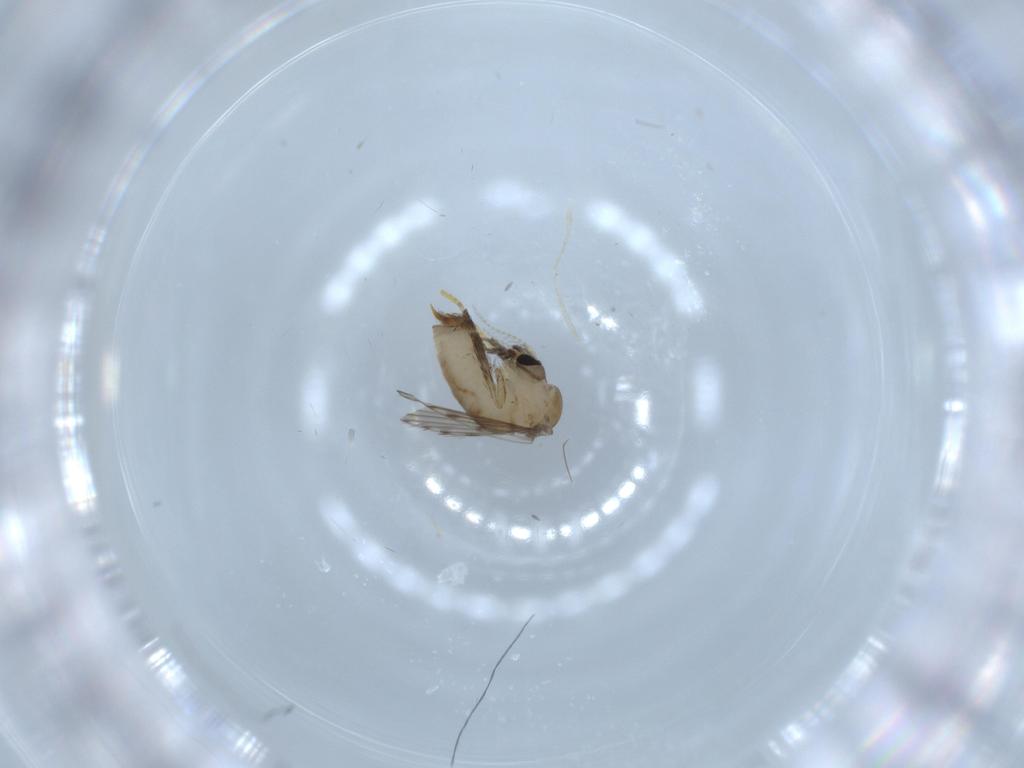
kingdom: Animalia
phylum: Arthropoda
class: Insecta
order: Diptera
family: Psychodidae
